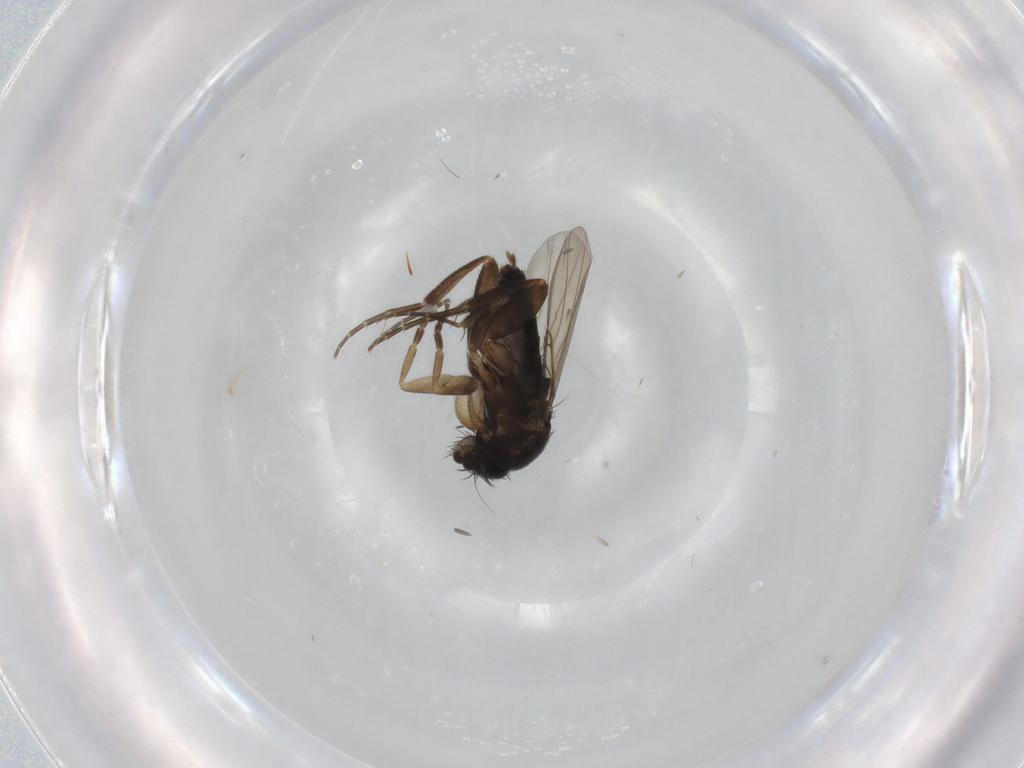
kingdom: Animalia
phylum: Arthropoda
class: Insecta
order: Diptera
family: Phoridae
